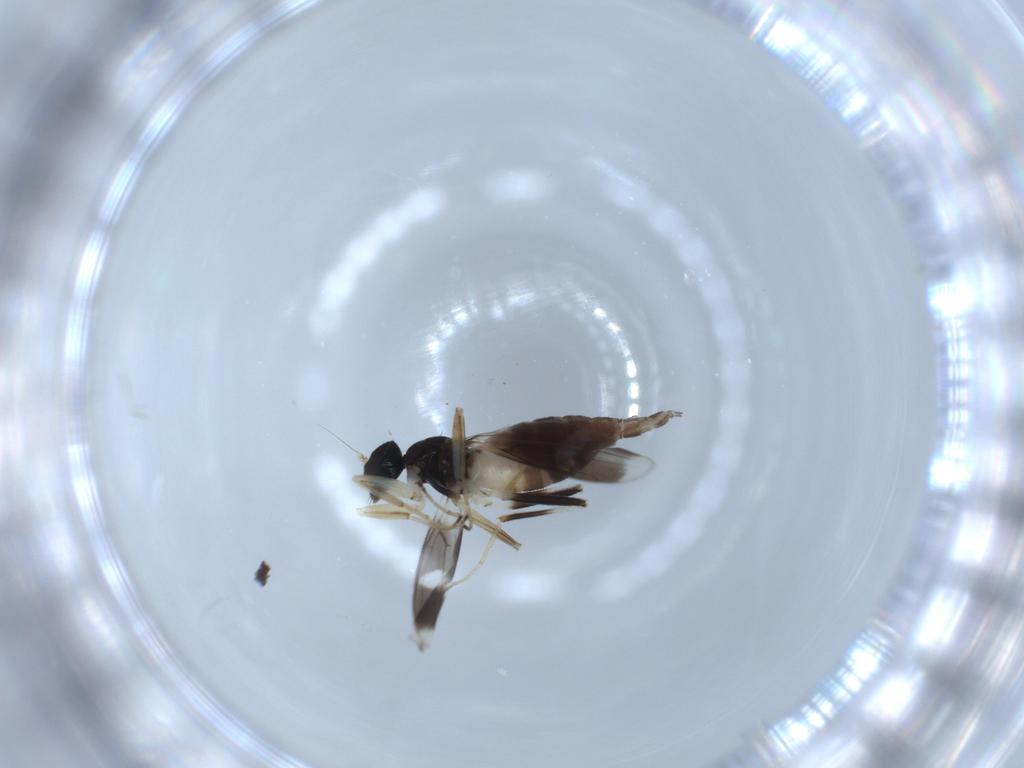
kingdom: Animalia
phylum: Arthropoda
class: Insecta
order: Diptera
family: Hybotidae
